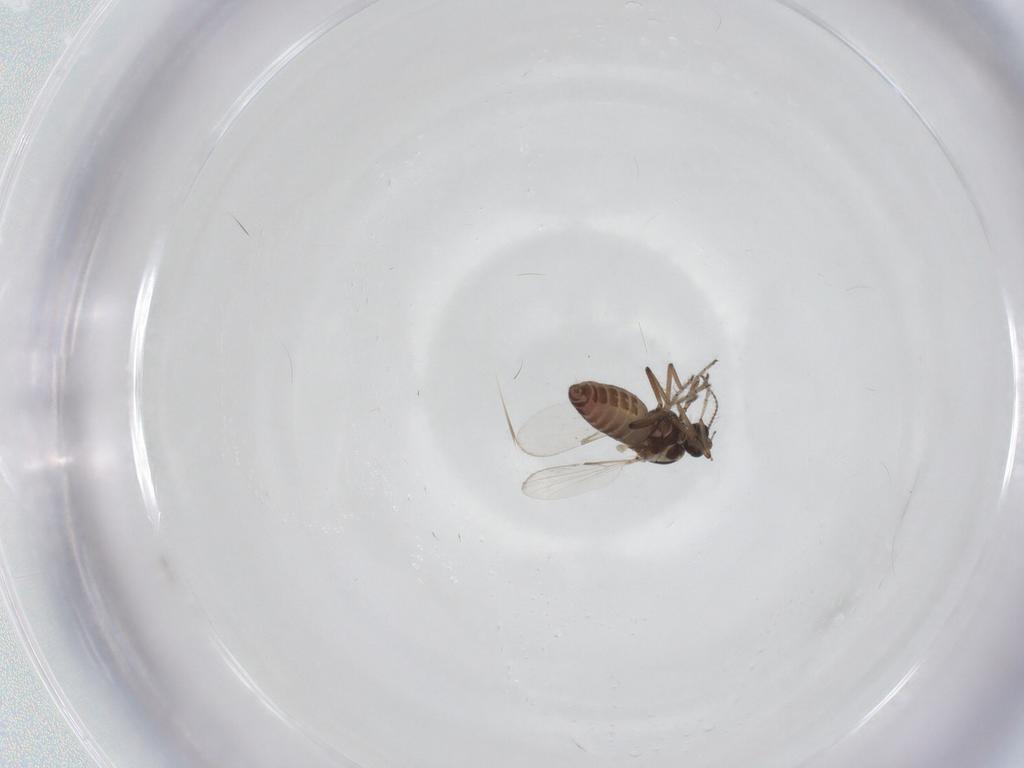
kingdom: Animalia
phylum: Arthropoda
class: Insecta
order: Diptera
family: Ceratopogonidae
